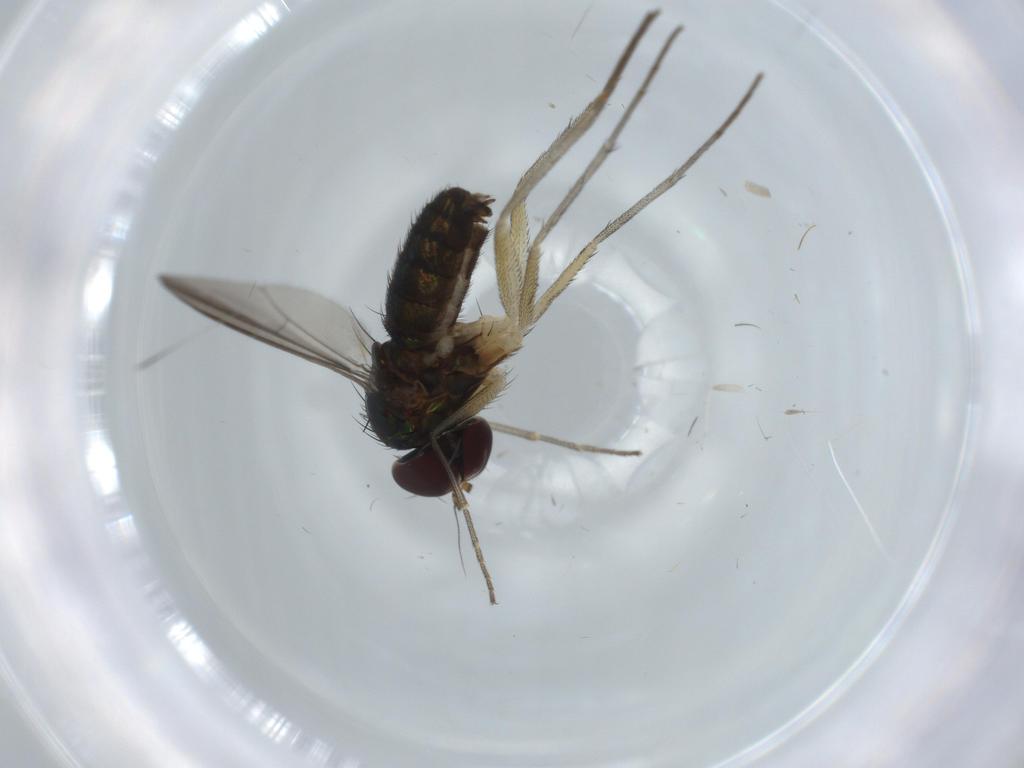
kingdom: Animalia
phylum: Arthropoda
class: Insecta
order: Diptera
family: Dolichopodidae
